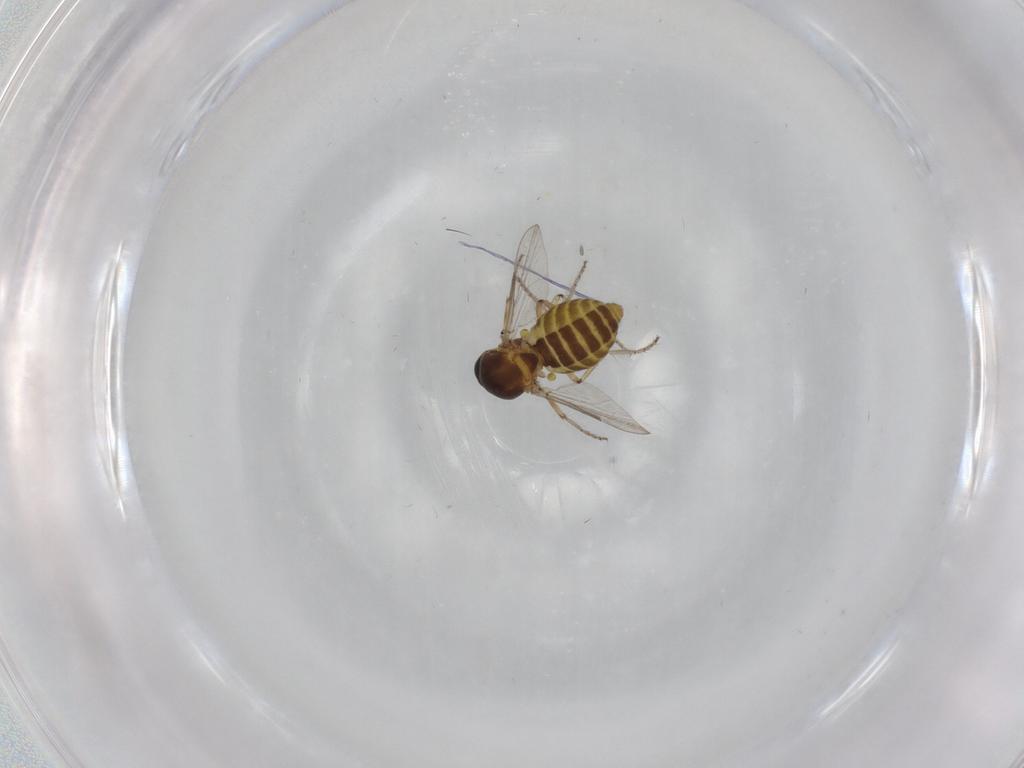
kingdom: Animalia
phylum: Arthropoda
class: Insecta
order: Diptera
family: Ceratopogonidae
